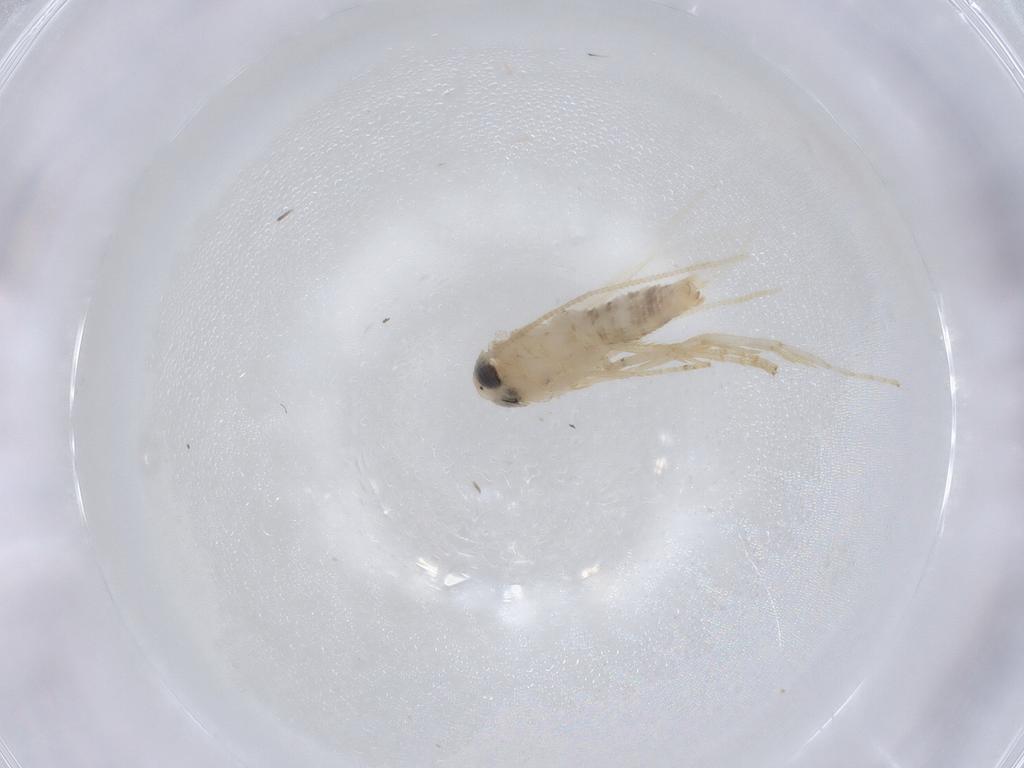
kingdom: Animalia
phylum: Arthropoda
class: Insecta
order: Lepidoptera
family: Opostegidae
